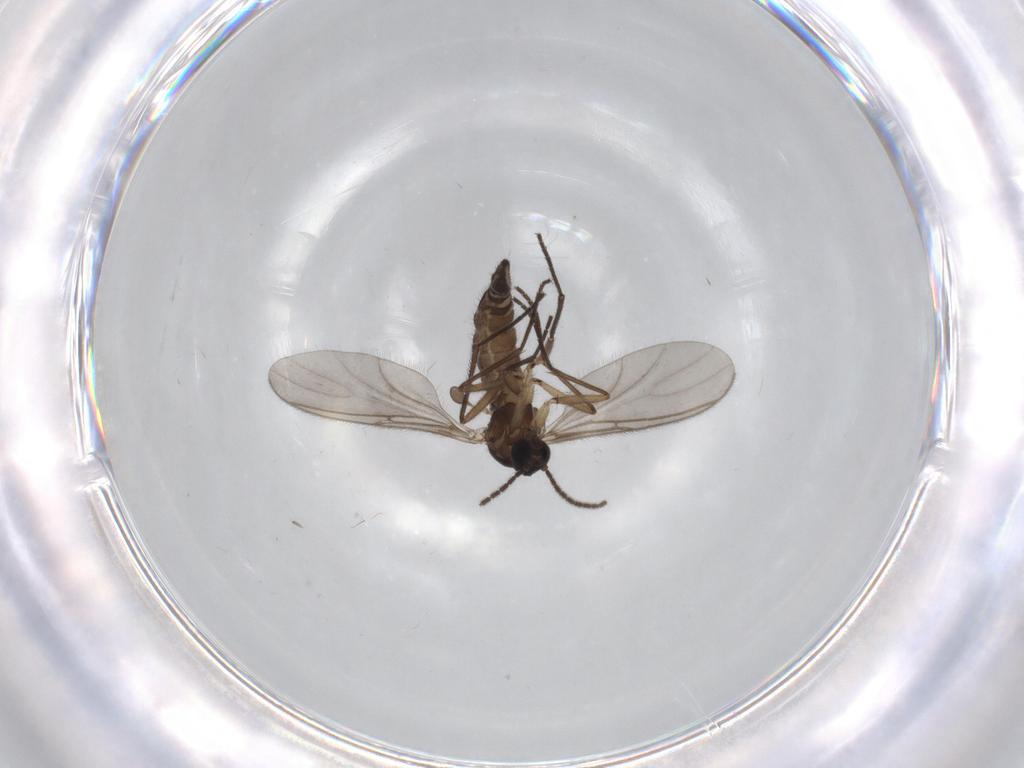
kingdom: Animalia
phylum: Arthropoda
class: Insecta
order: Diptera
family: Sciaridae
